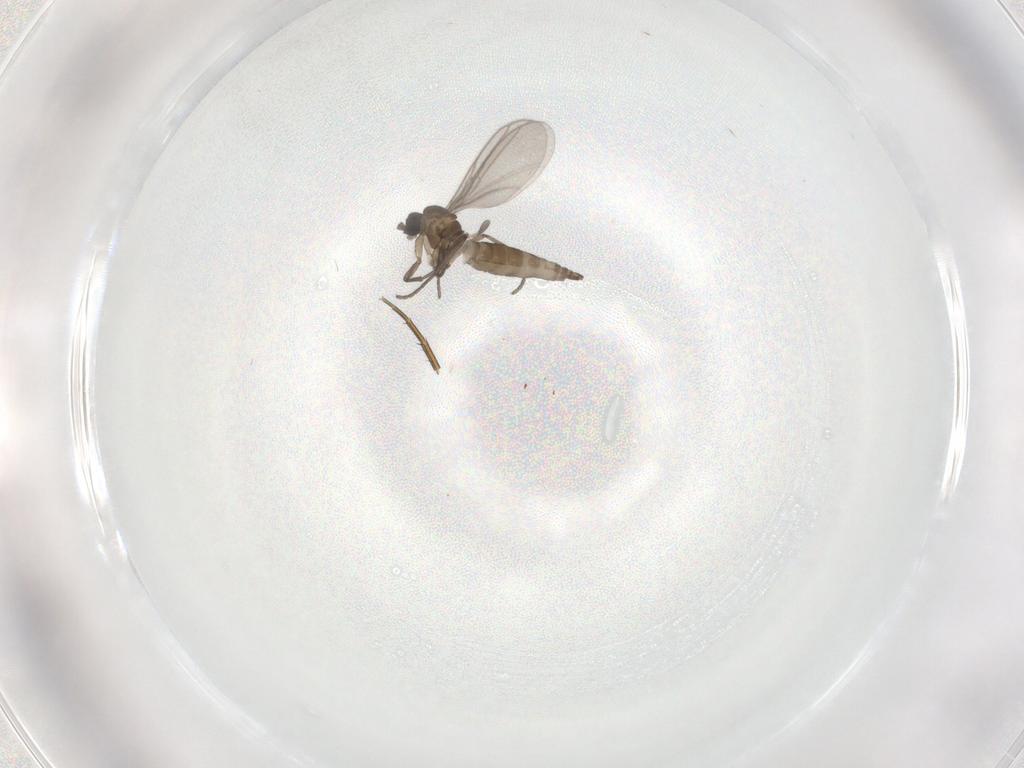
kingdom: Animalia
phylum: Arthropoda
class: Insecta
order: Diptera
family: Sciaridae
